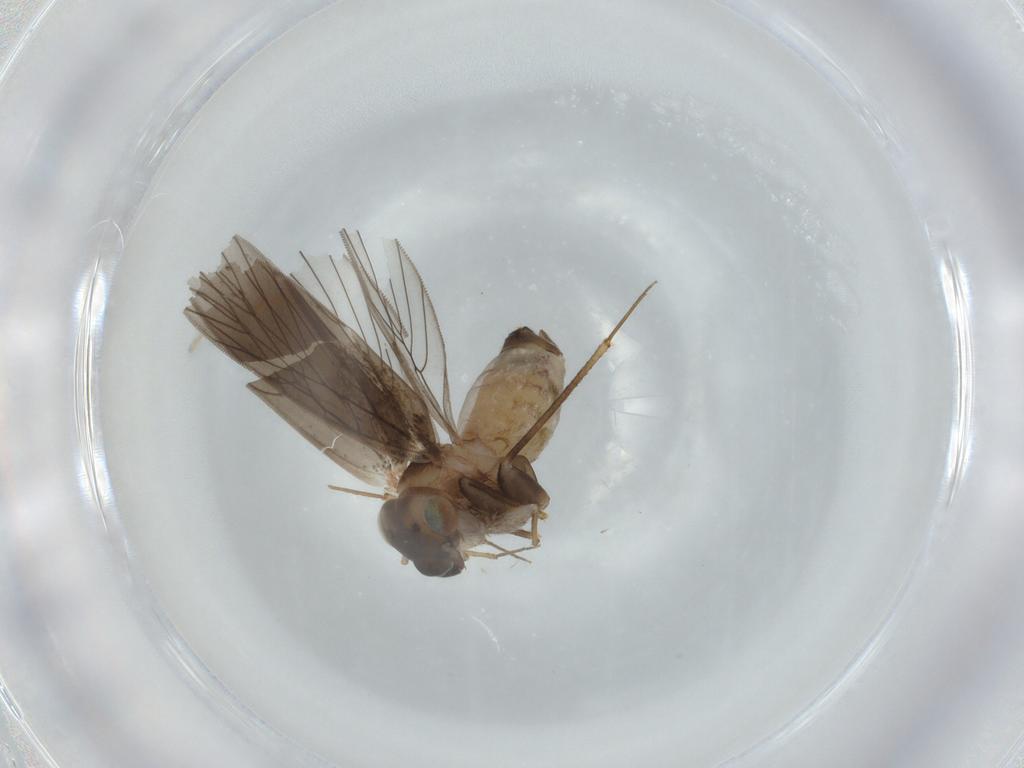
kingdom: Animalia
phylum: Arthropoda
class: Insecta
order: Psocodea
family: Lepidopsocidae
